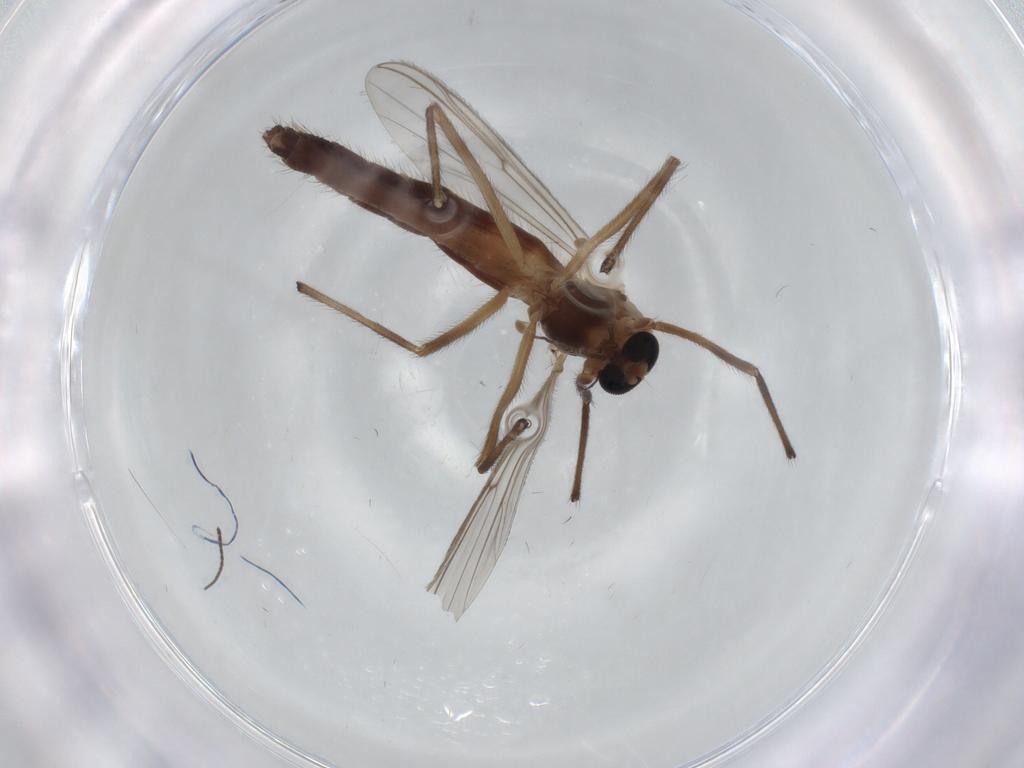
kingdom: Animalia
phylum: Arthropoda
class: Insecta
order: Diptera
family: Chironomidae
